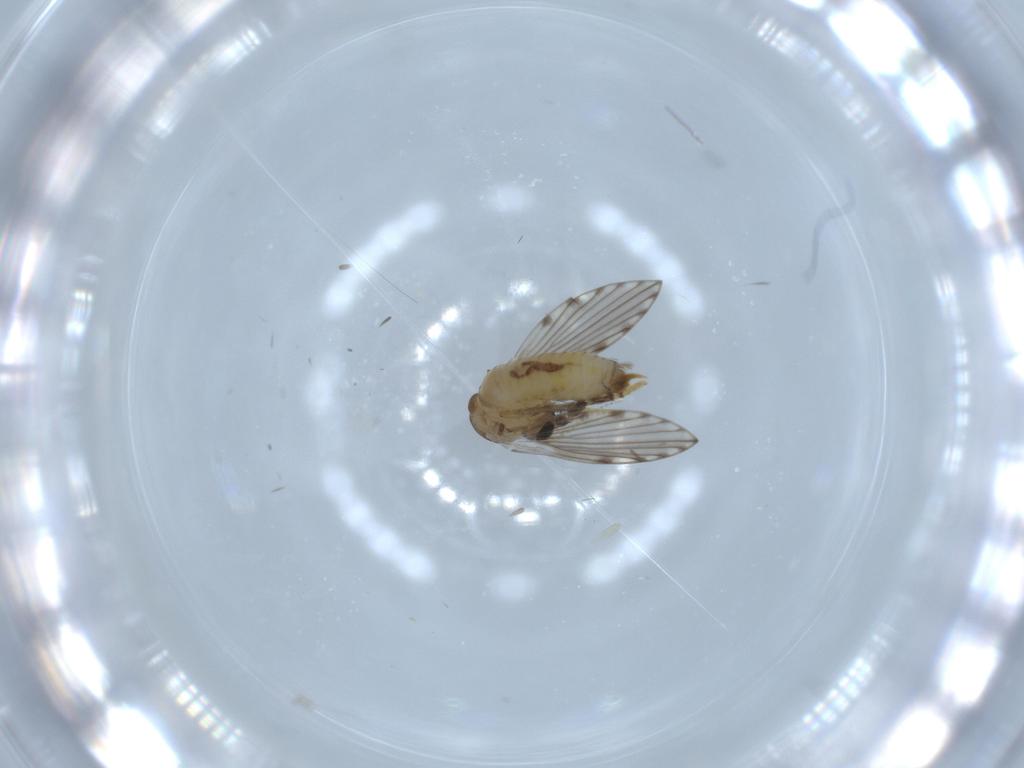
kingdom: Animalia
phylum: Arthropoda
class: Insecta
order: Diptera
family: Psychodidae
